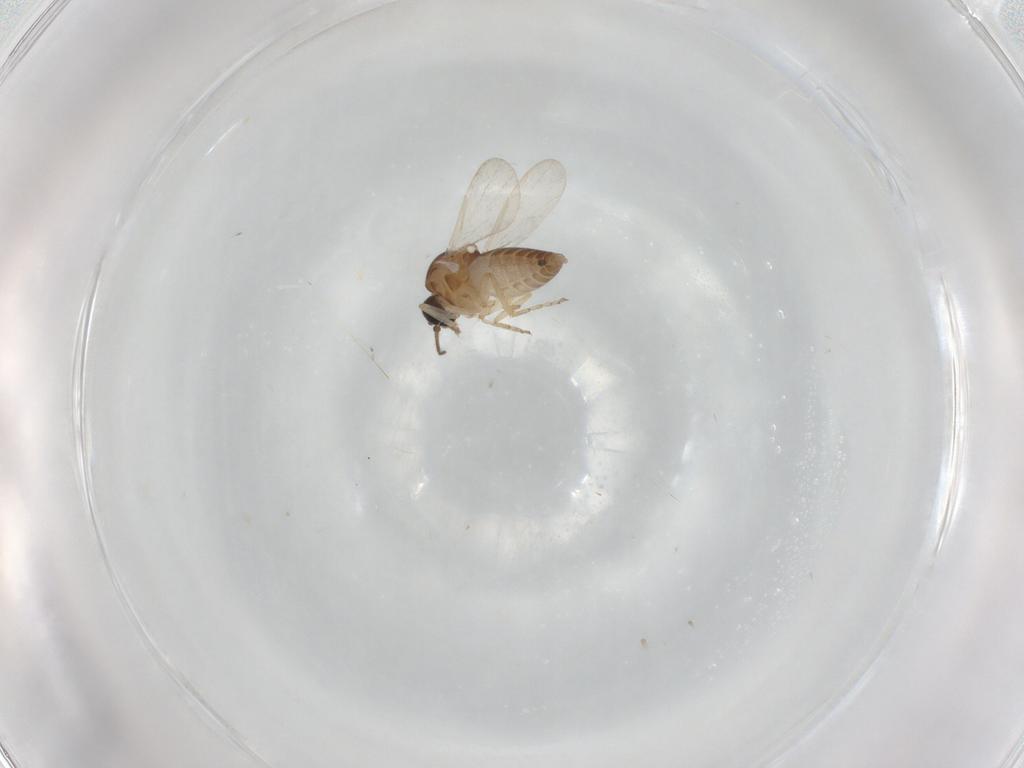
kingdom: Animalia
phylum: Arthropoda
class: Insecta
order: Diptera
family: Ceratopogonidae
